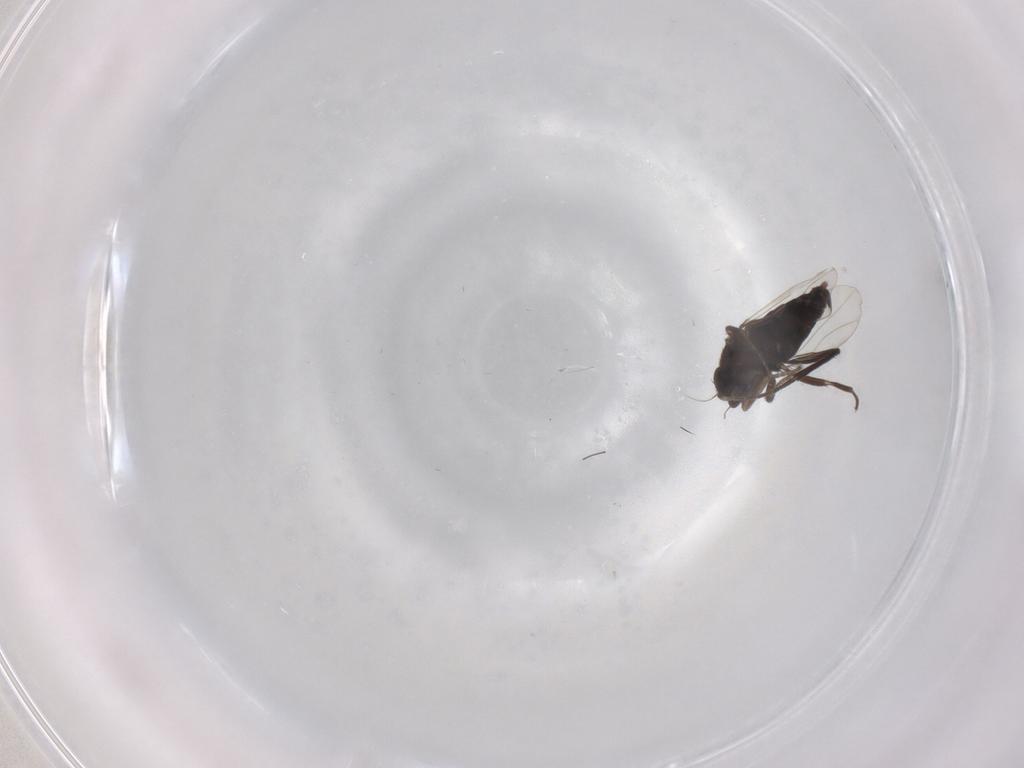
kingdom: Animalia
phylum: Arthropoda
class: Insecta
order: Diptera
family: Phoridae
